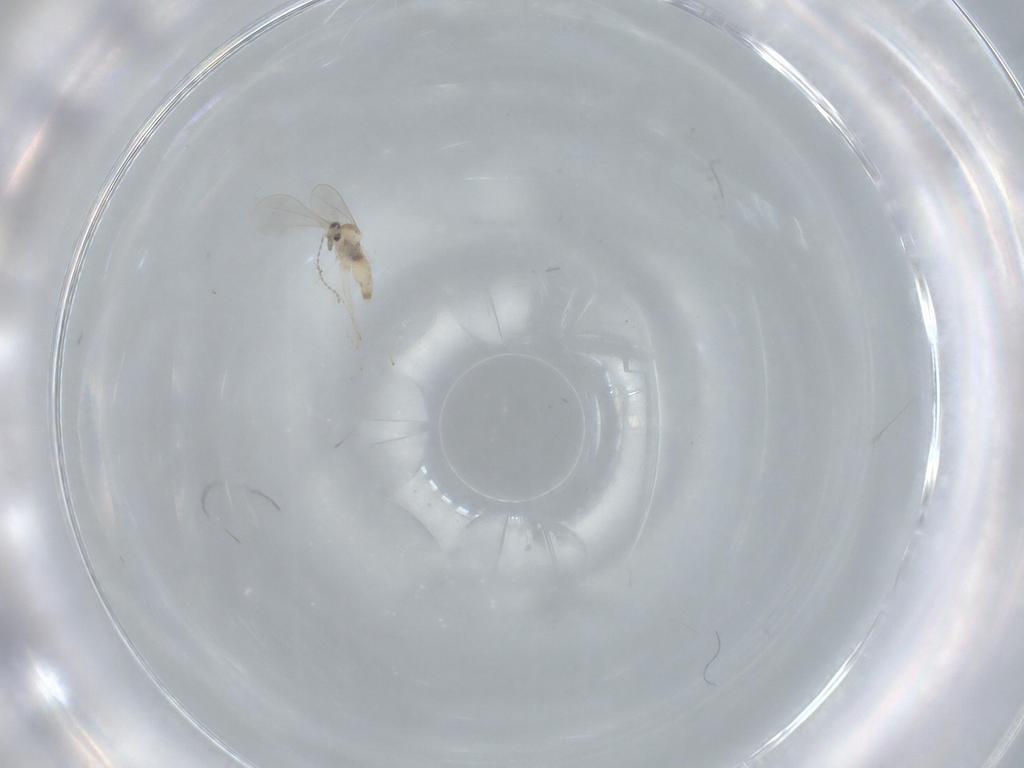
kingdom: Animalia
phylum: Arthropoda
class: Insecta
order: Diptera
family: Cecidomyiidae
